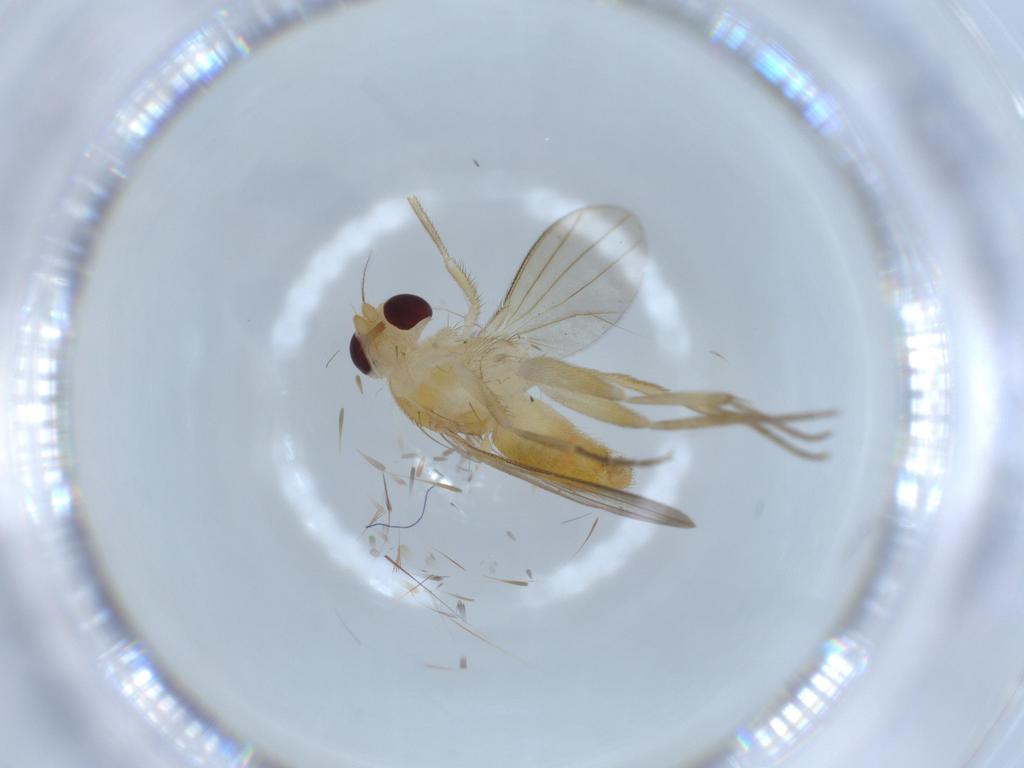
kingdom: Animalia
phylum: Arthropoda
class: Insecta
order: Diptera
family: Clusiidae
